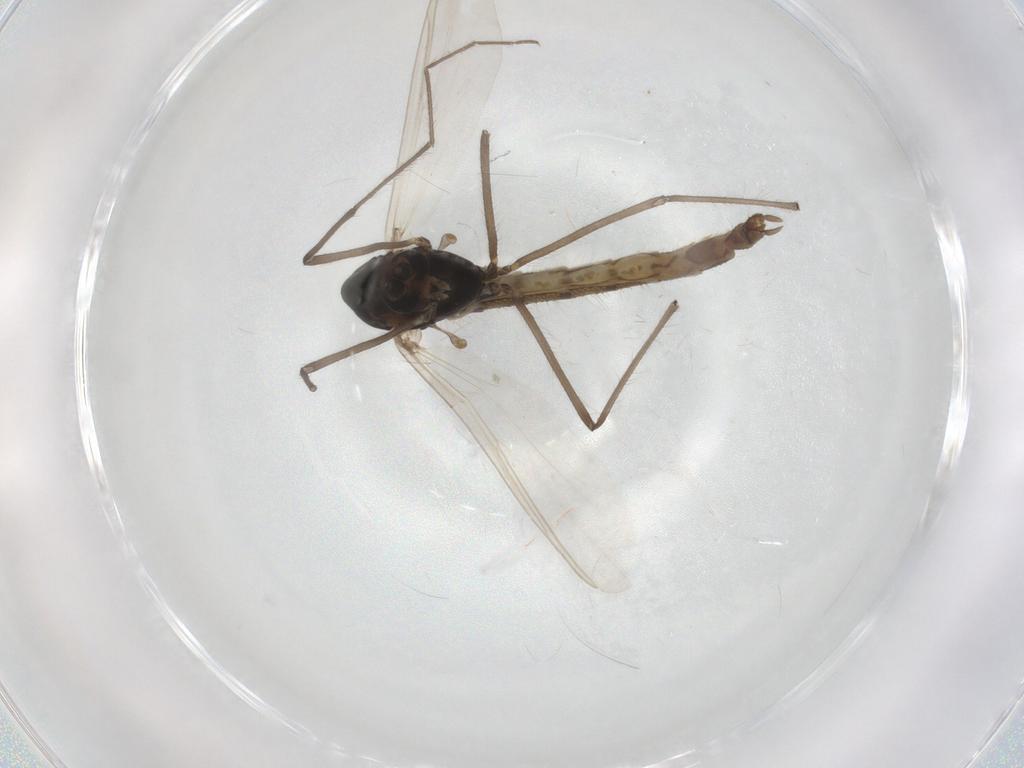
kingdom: Animalia
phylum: Arthropoda
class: Insecta
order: Diptera
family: Chironomidae
